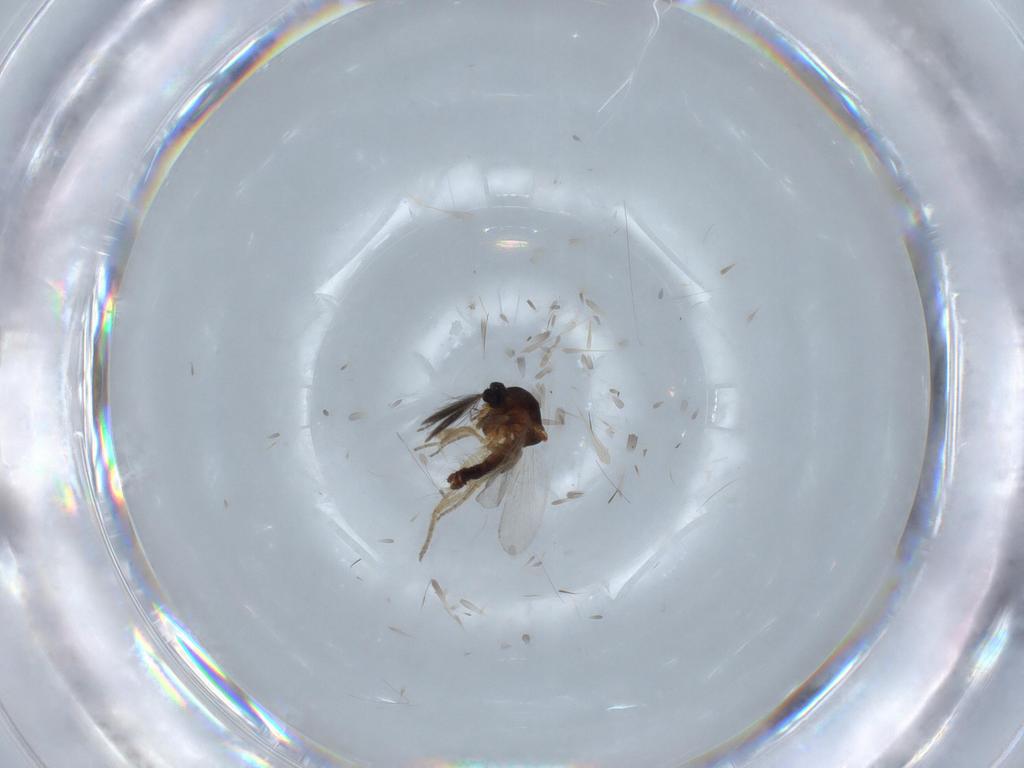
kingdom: Animalia
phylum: Arthropoda
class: Insecta
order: Diptera
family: Ceratopogonidae
